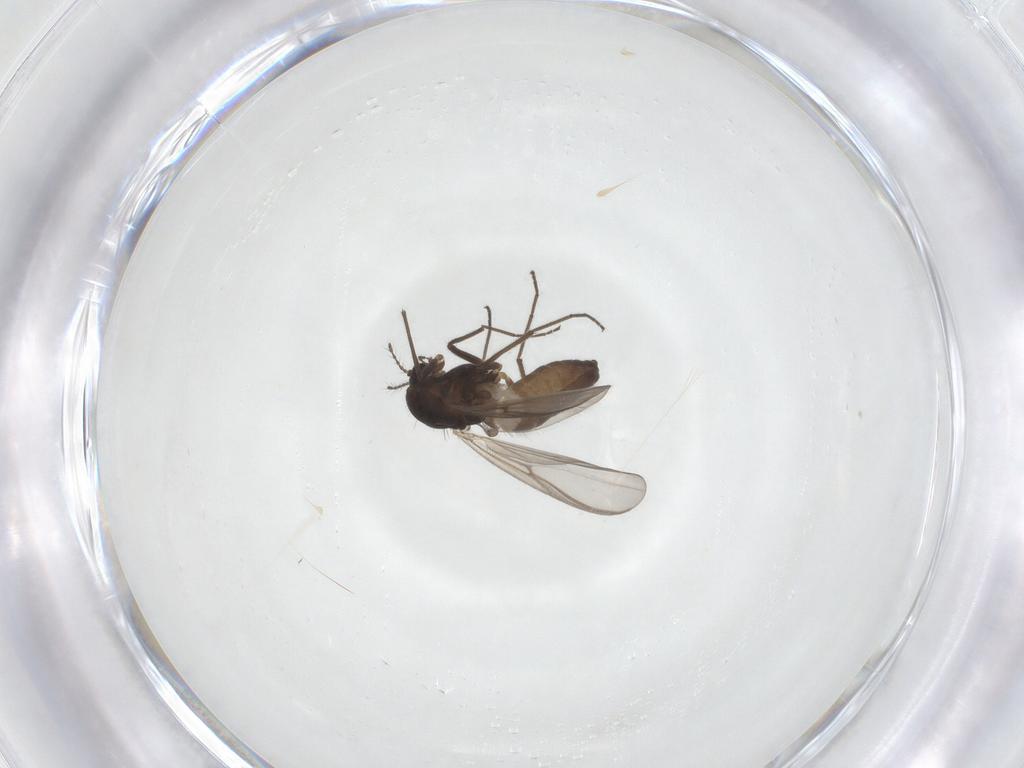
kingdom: Animalia
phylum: Arthropoda
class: Insecta
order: Diptera
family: Chironomidae
